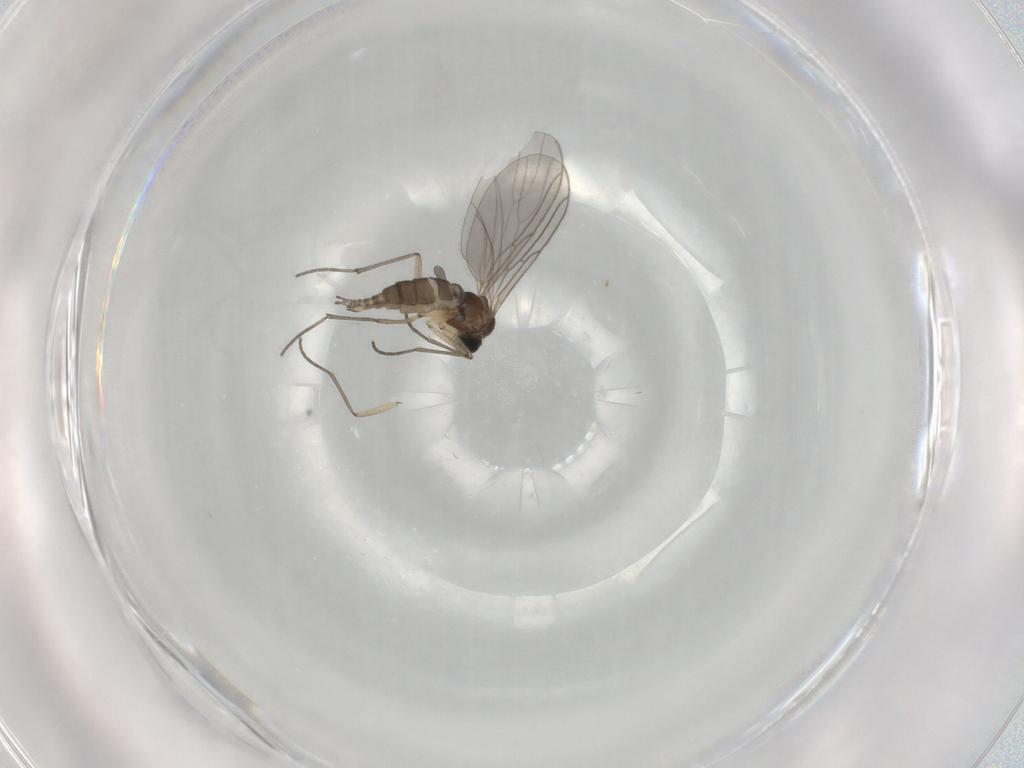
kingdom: Animalia
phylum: Arthropoda
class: Insecta
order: Diptera
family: Sciaridae
